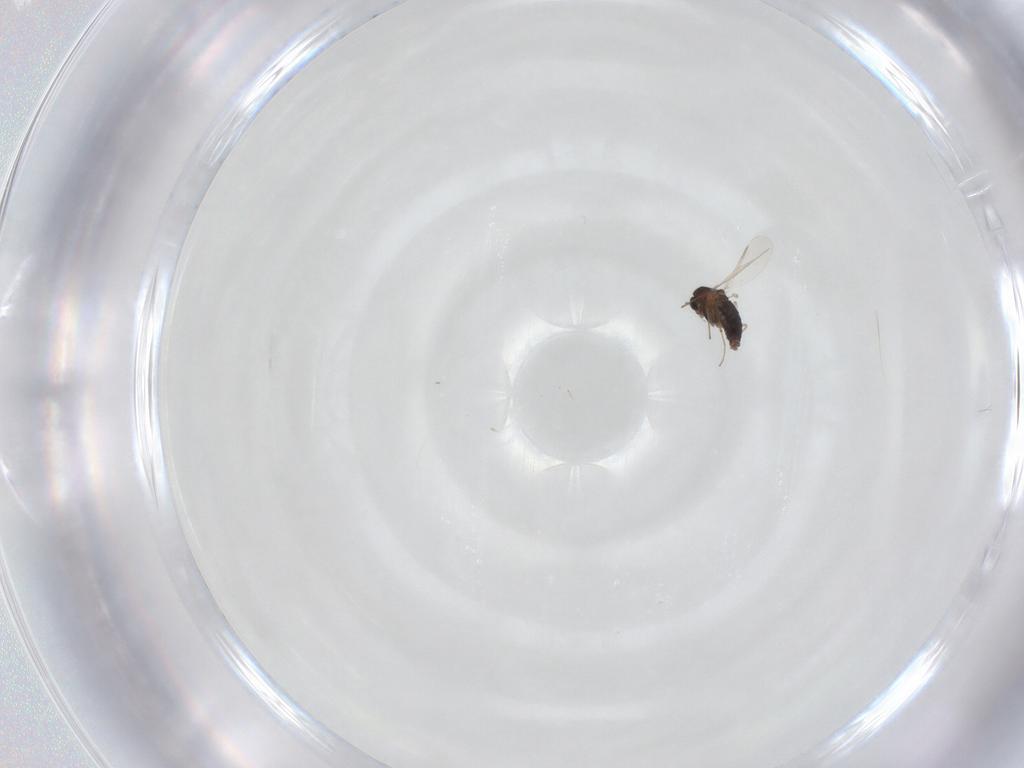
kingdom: Animalia
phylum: Arthropoda
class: Insecta
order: Diptera
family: Chironomidae
